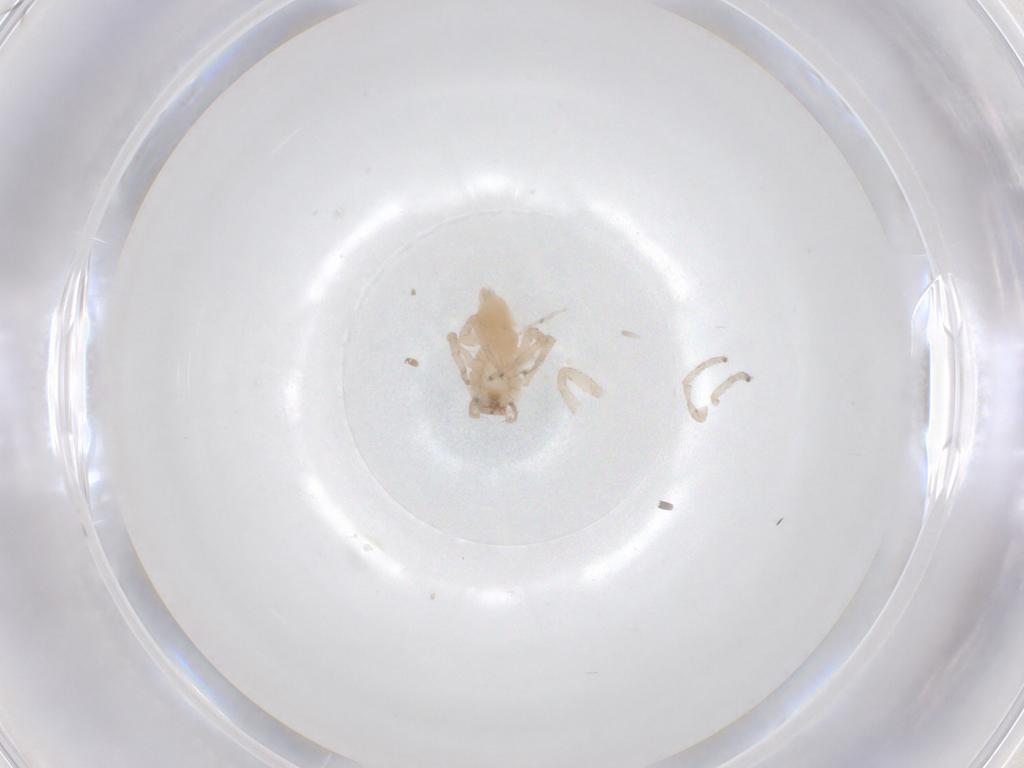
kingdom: Animalia
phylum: Arthropoda
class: Arachnida
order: Araneae
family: Anyphaenidae
